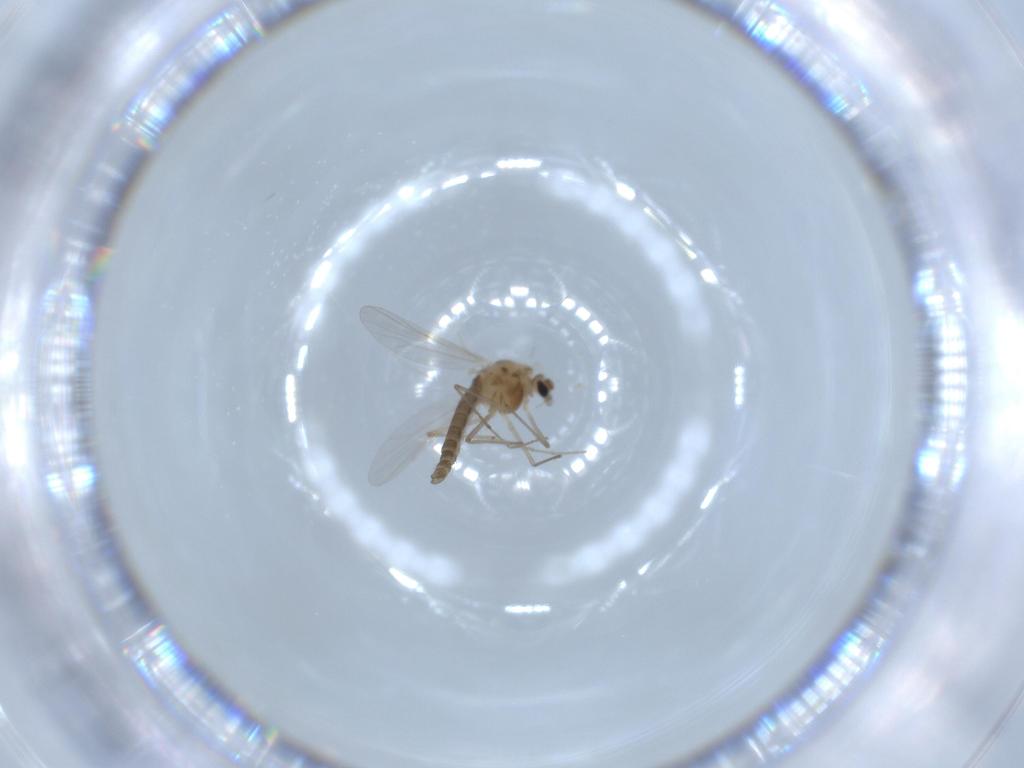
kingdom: Animalia
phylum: Arthropoda
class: Insecta
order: Diptera
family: Chironomidae
